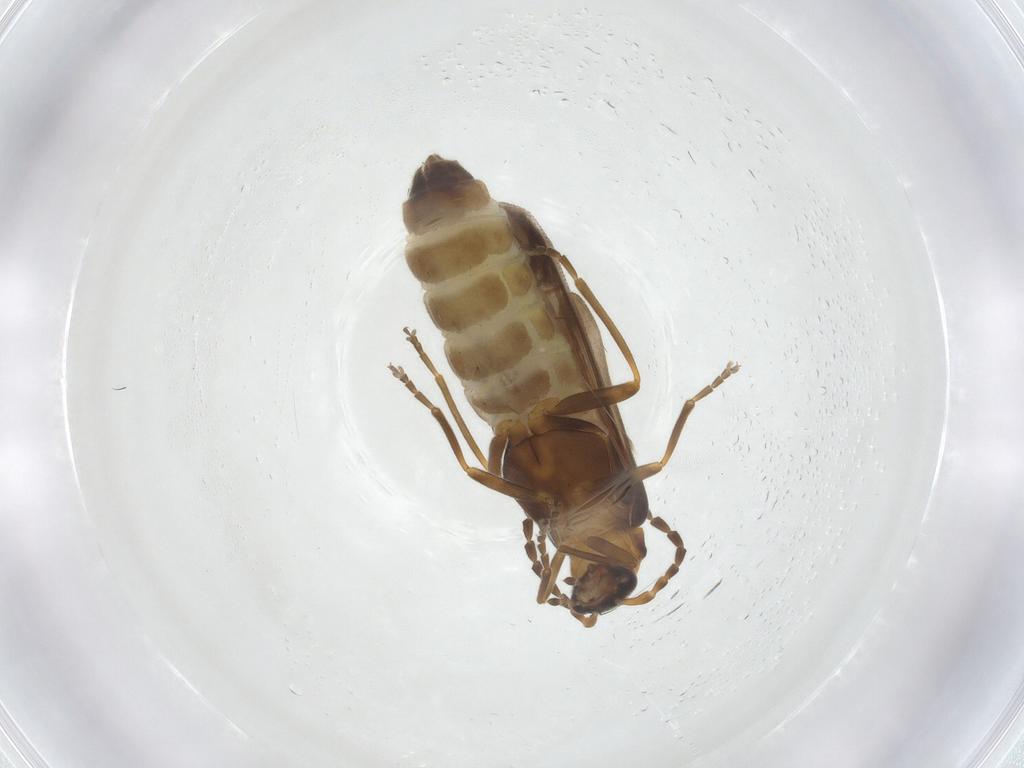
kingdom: Animalia
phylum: Arthropoda
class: Insecta
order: Coleoptera
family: Cantharidae
